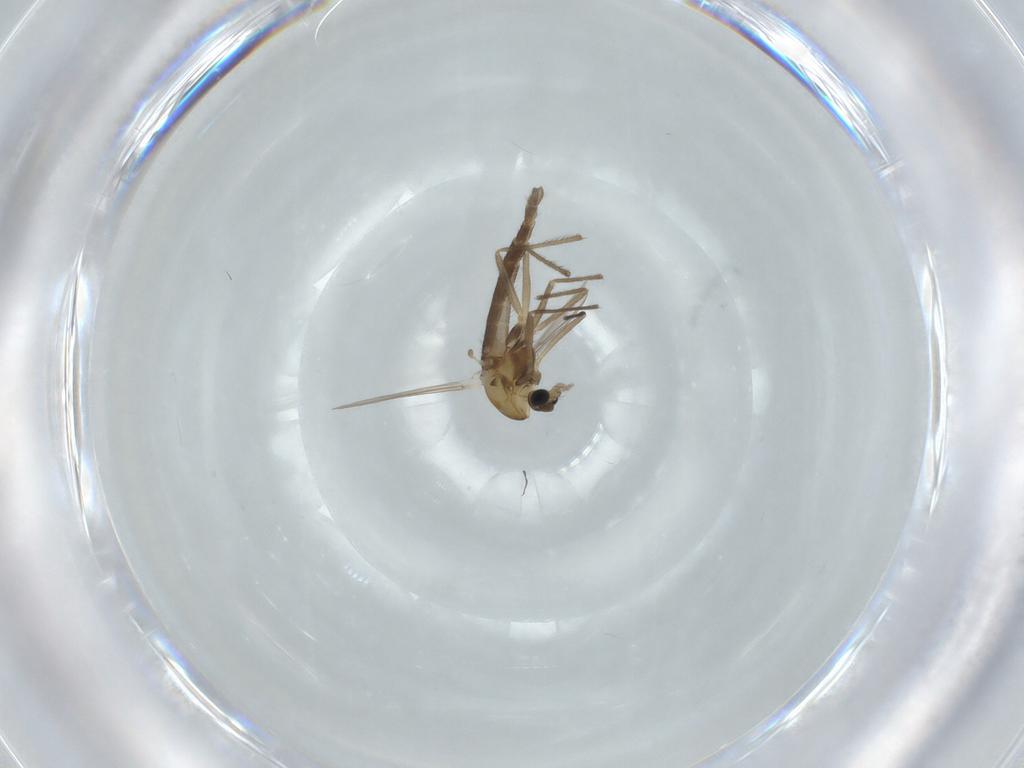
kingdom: Animalia
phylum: Arthropoda
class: Insecta
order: Diptera
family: Chironomidae
